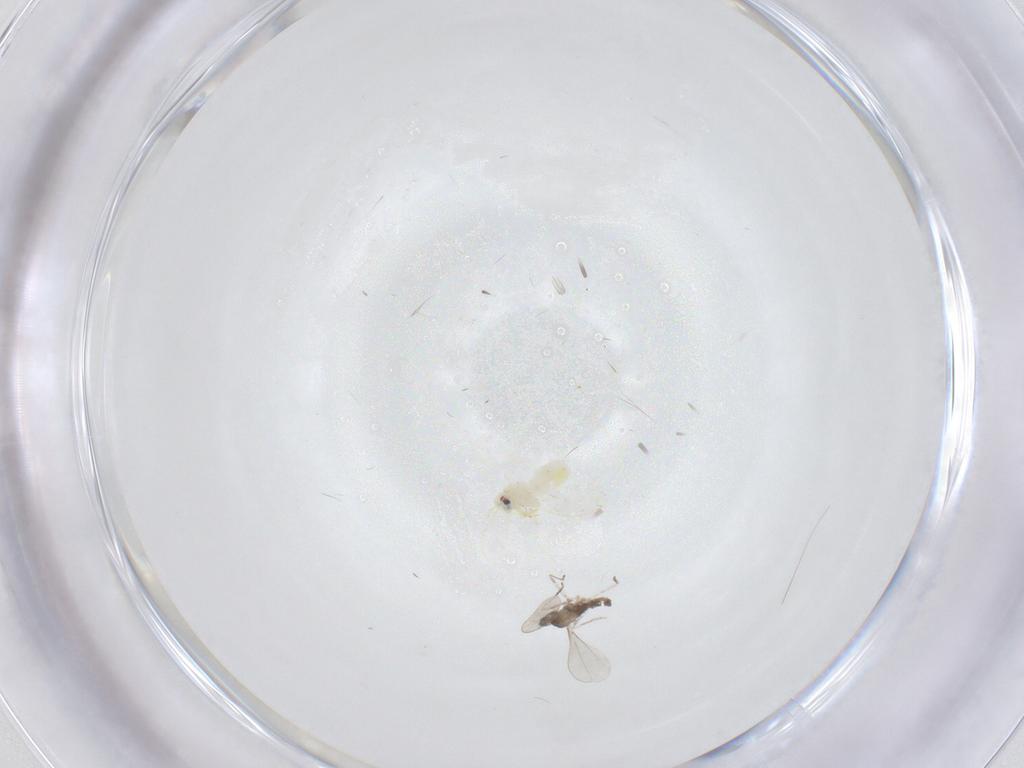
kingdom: Animalia
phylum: Arthropoda
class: Insecta
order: Diptera
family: Cecidomyiidae
